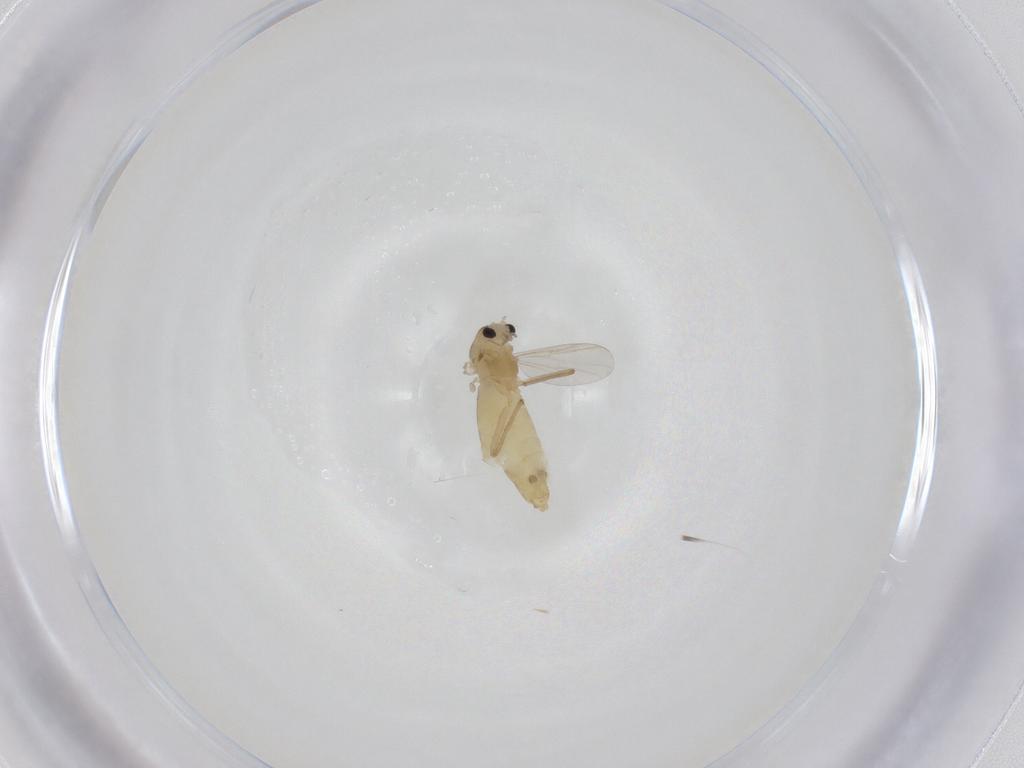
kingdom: Animalia
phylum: Arthropoda
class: Insecta
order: Diptera
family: Chironomidae
